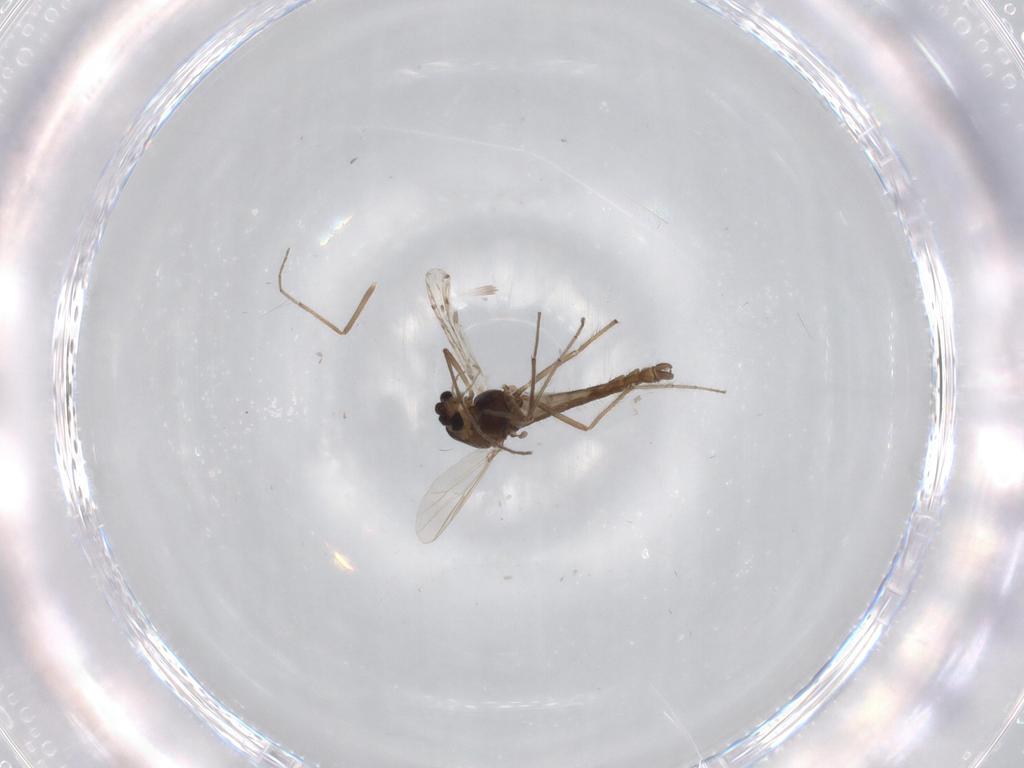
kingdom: Animalia
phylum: Arthropoda
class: Insecta
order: Diptera
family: Chironomidae
